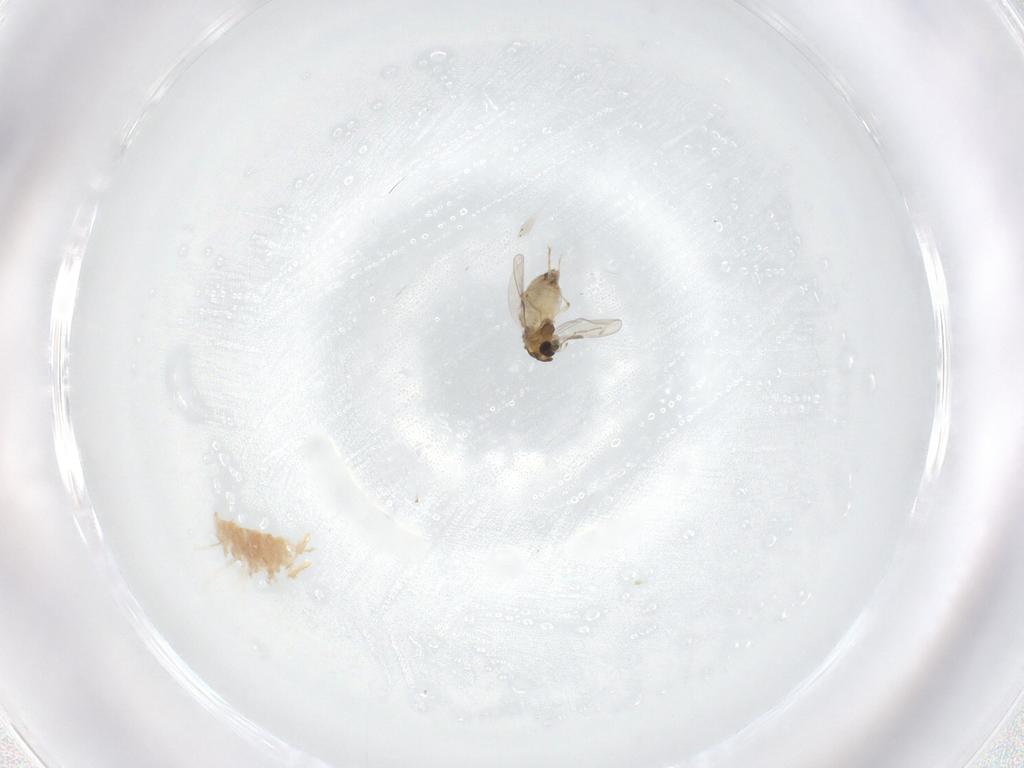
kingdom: Animalia
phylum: Arthropoda
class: Insecta
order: Diptera
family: Chironomidae
